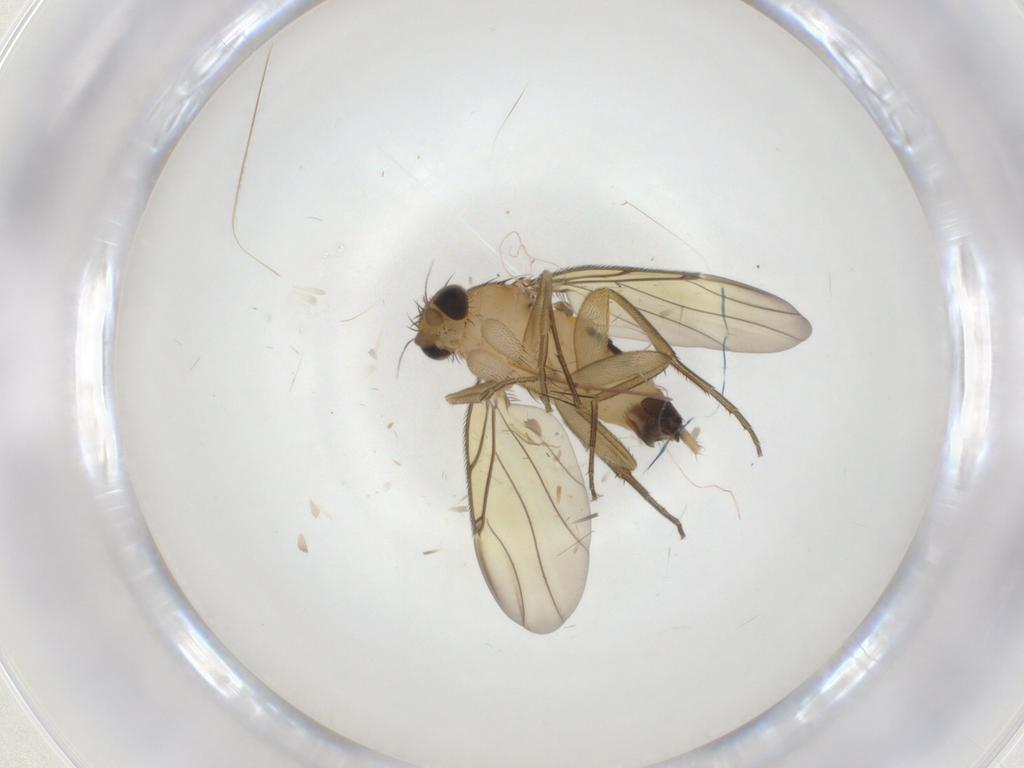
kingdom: Animalia
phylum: Arthropoda
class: Insecta
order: Diptera
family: Phoridae
